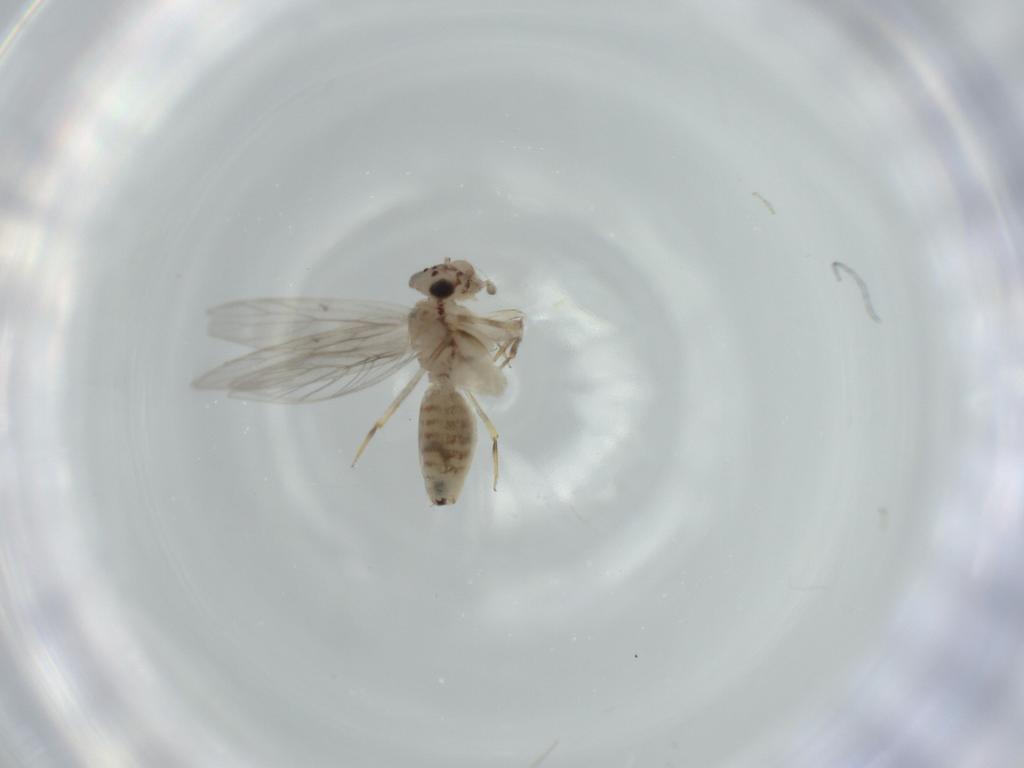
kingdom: Animalia
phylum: Arthropoda
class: Insecta
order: Psocodea
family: Lepidopsocidae
